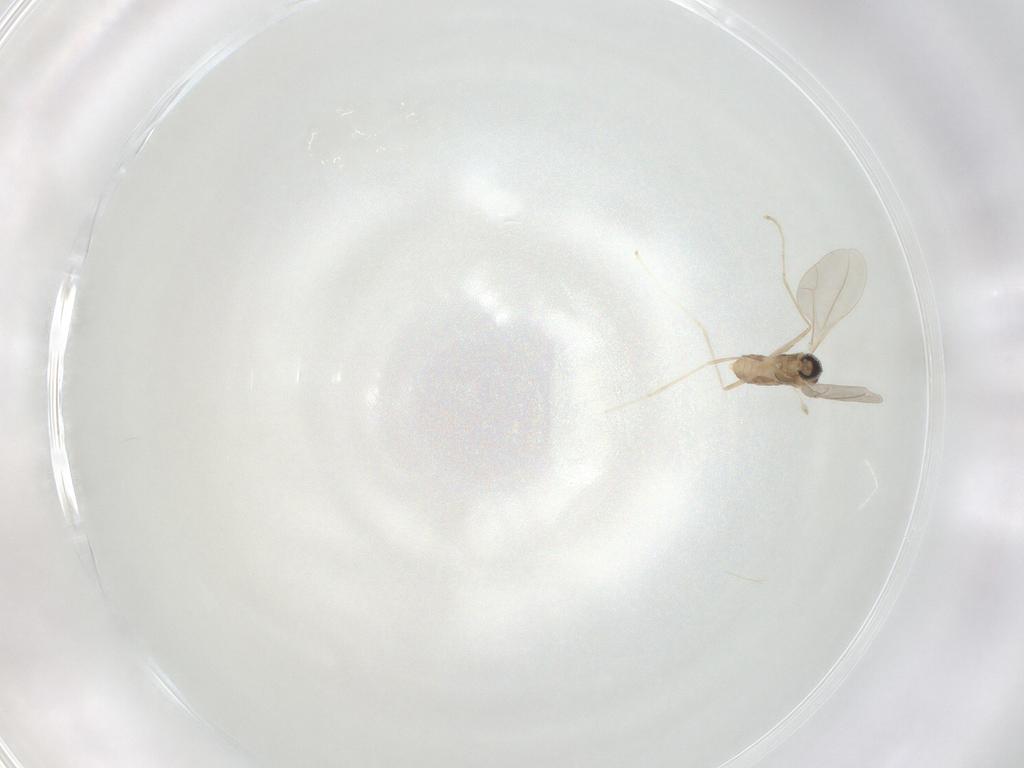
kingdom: Animalia
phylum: Arthropoda
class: Insecta
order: Diptera
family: Cecidomyiidae
